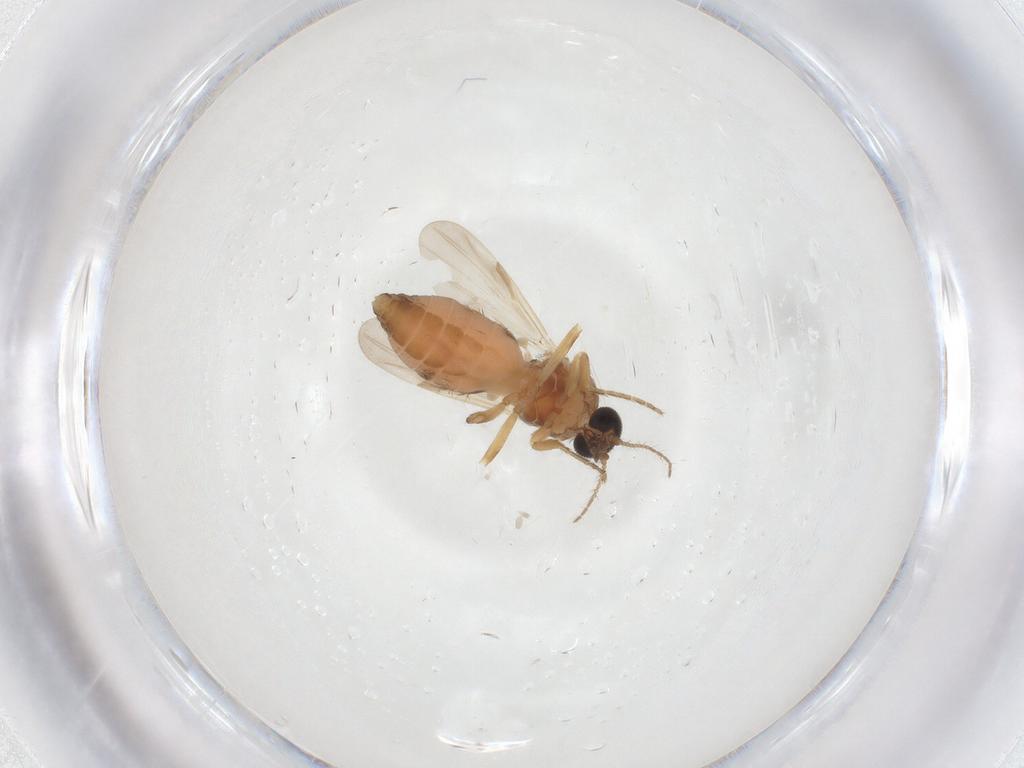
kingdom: Animalia
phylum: Arthropoda
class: Insecta
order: Diptera
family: Ceratopogonidae
